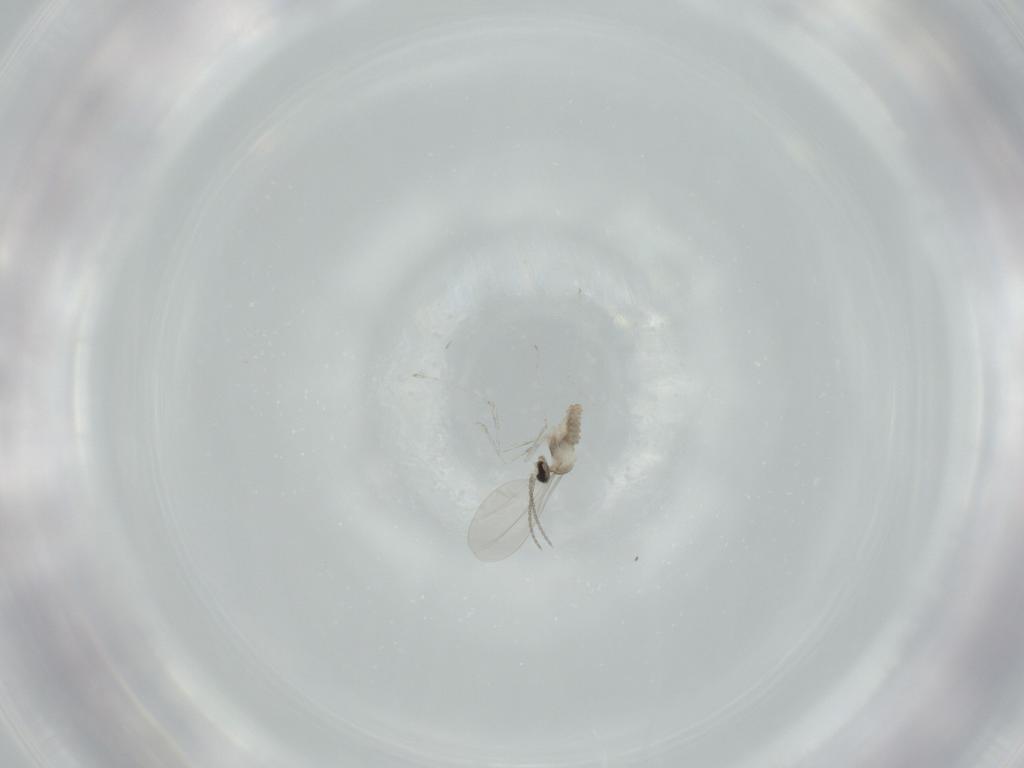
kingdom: Animalia
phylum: Arthropoda
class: Insecta
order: Diptera
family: Cecidomyiidae
